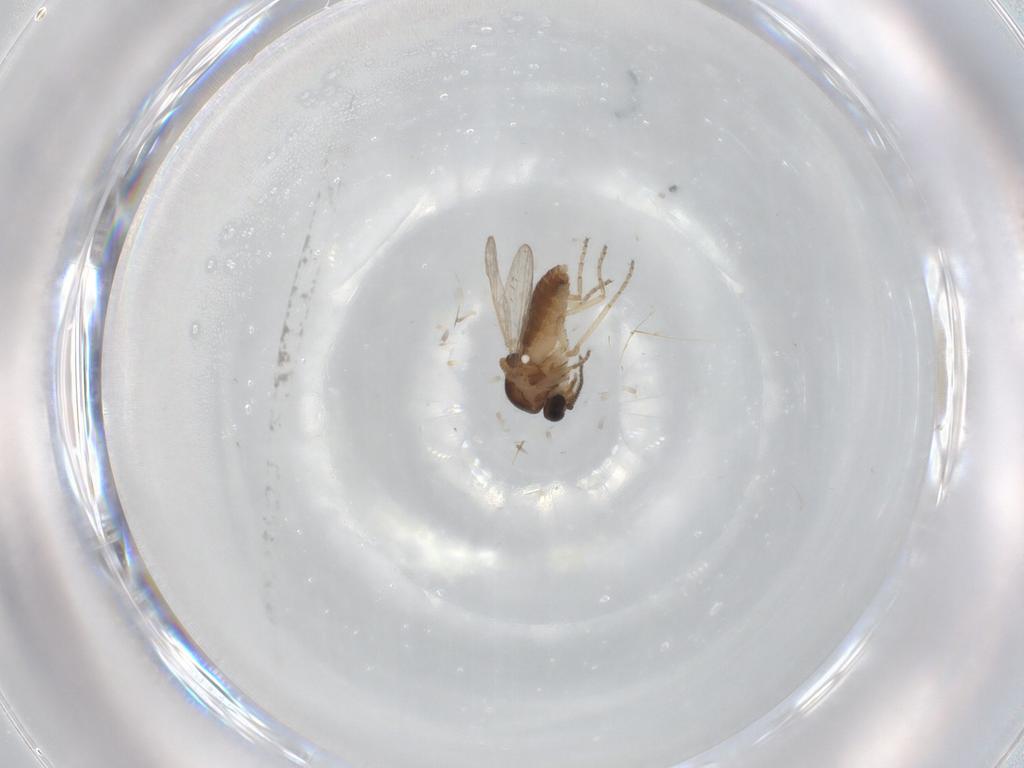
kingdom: Animalia
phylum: Arthropoda
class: Insecta
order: Diptera
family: Ceratopogonidae
